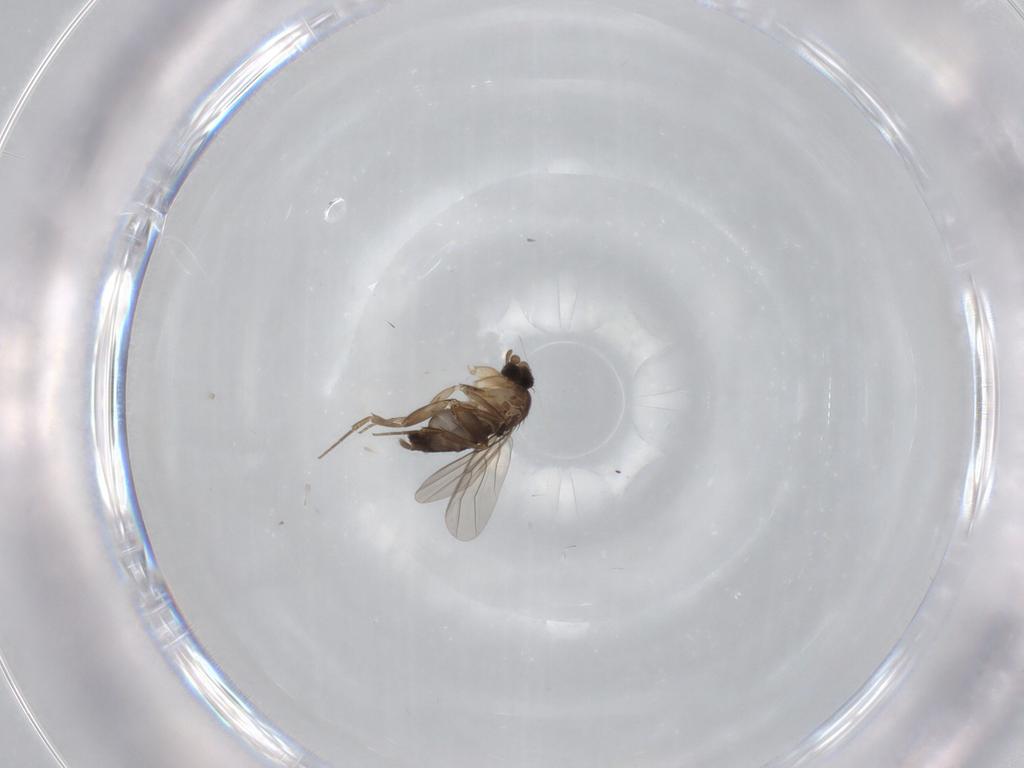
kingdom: Animalia
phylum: Arthropoda
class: Insecta
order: Diptera
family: Phoridae
